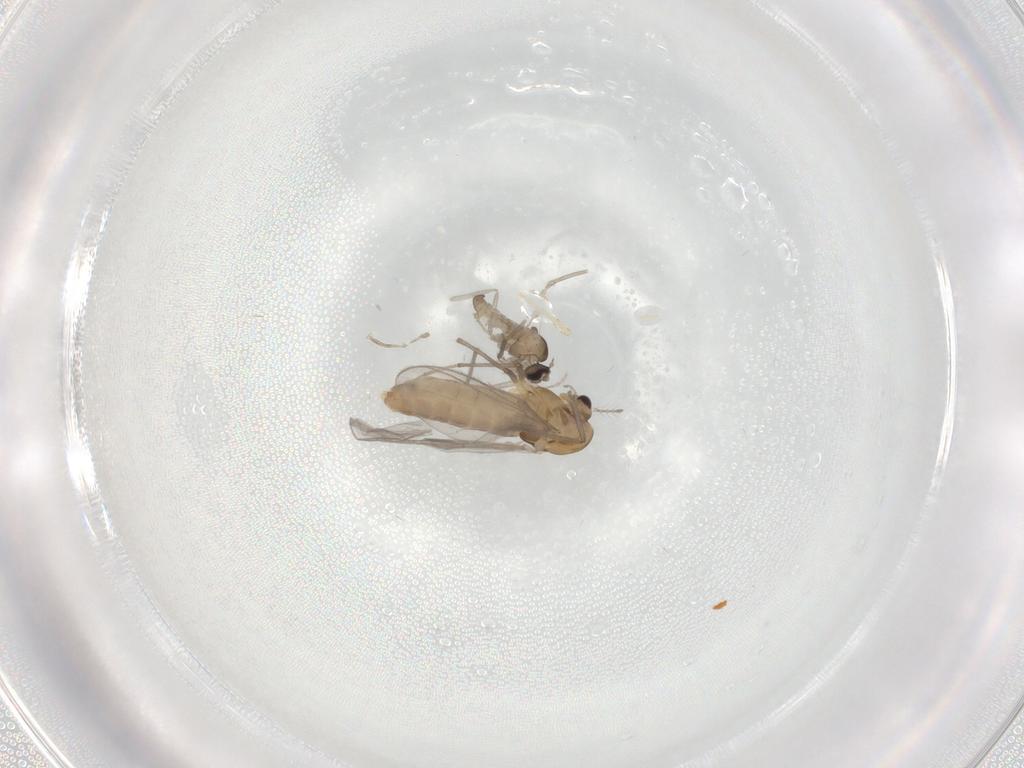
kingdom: Animalia
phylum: Arthropoda
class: Insecta
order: Diptera
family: Chironomidae
